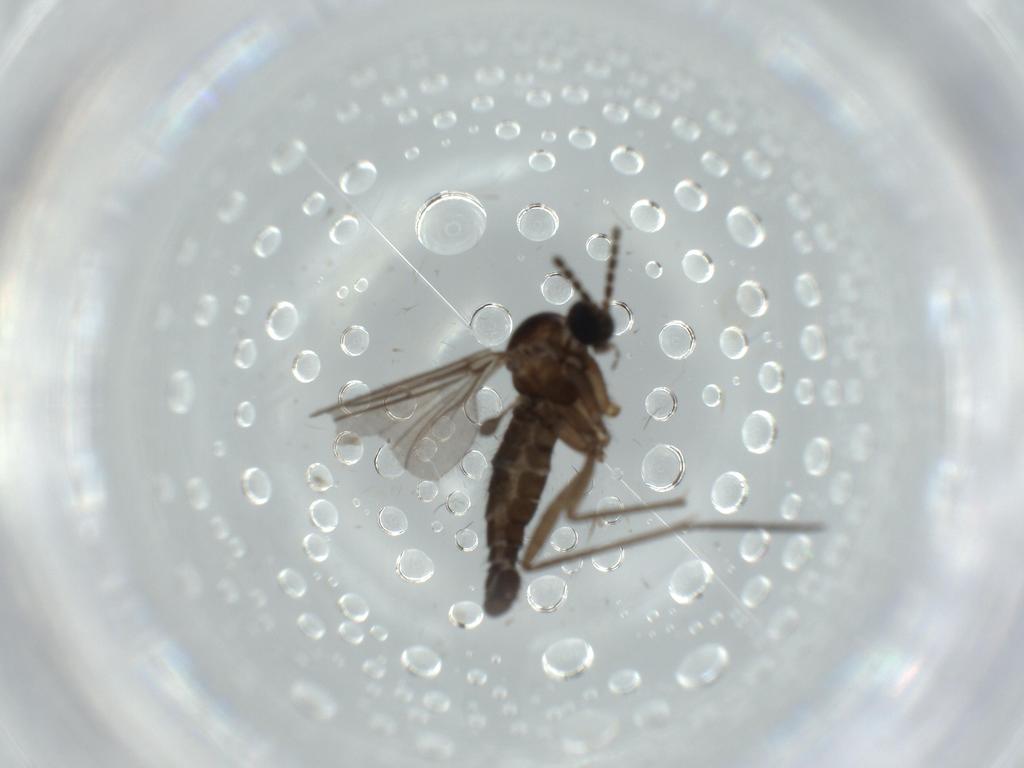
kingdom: Animalia
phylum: Arthropoda
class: Insecta
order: Diptera
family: Sciaridae
